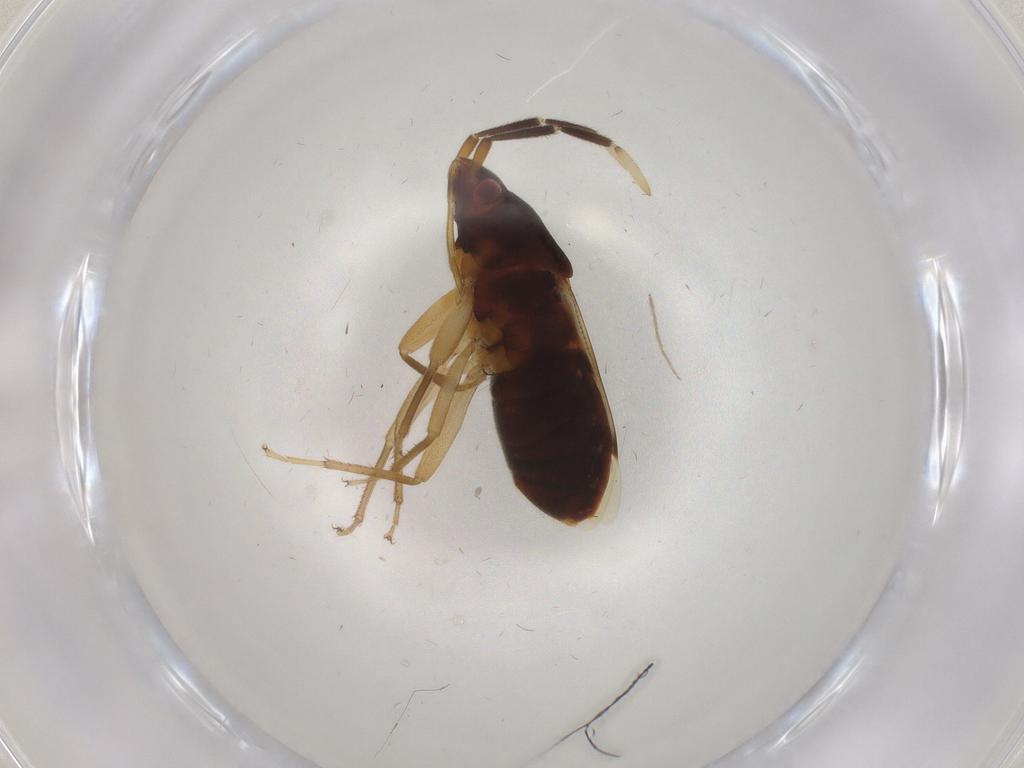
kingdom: Animalia
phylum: Arthropoda
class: Insecta
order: Hemiptera
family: Rhyparochromidae
